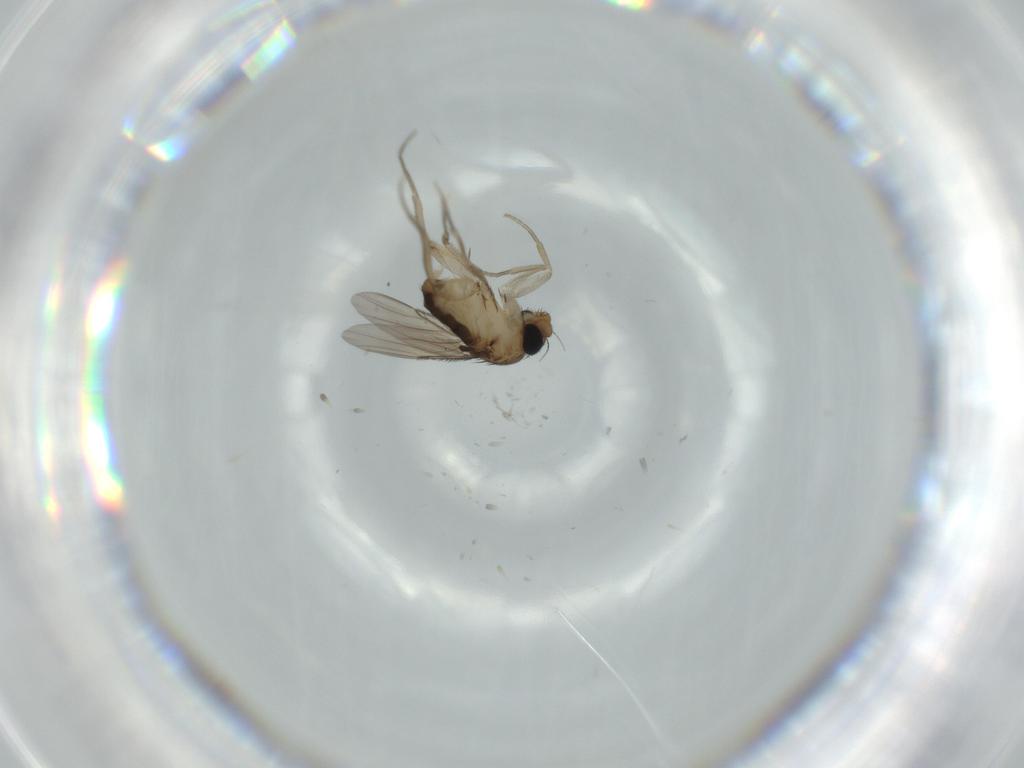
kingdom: Animalia
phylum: Arthropoda
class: Insecta
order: Diptera
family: Phoridae
